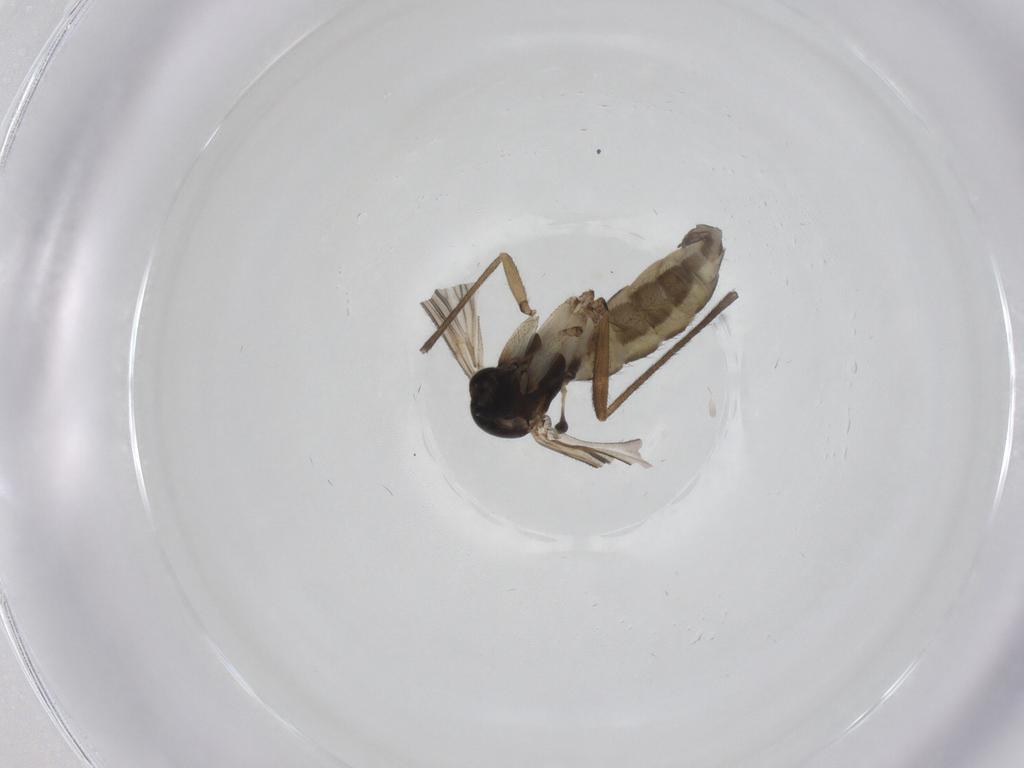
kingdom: Animalia
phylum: Arthropoda
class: Insecta
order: Diptera
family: Sciaridae
